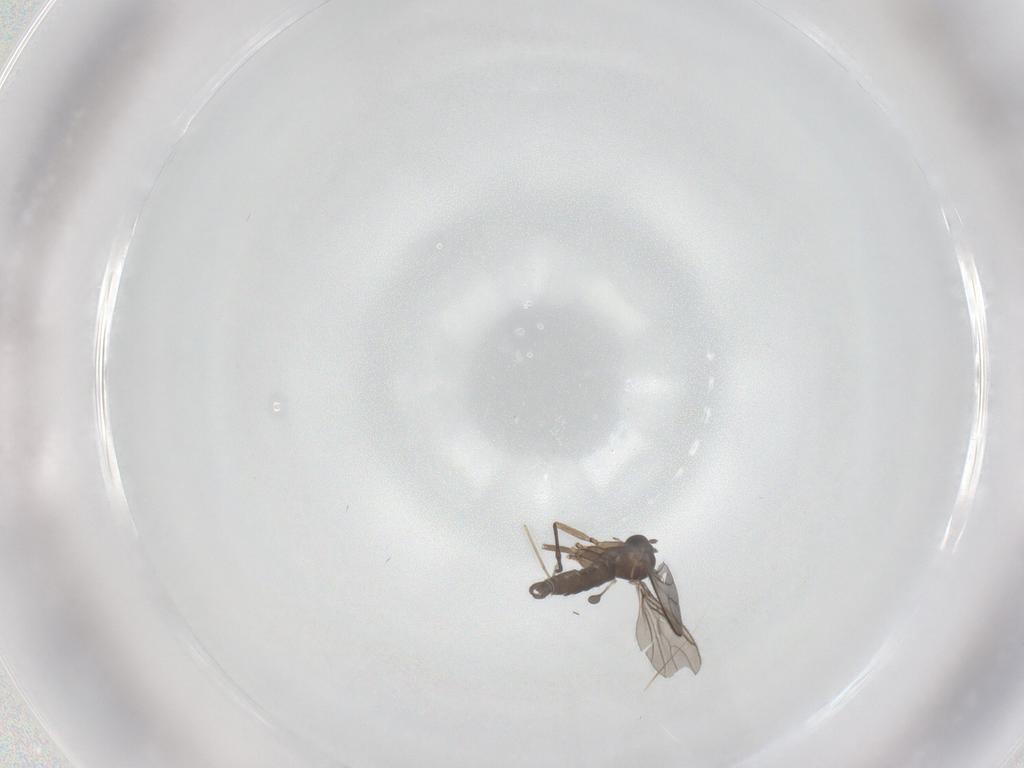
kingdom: Animalia
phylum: Arthropoda
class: Insecta
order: Diptera
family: Sciaridae
